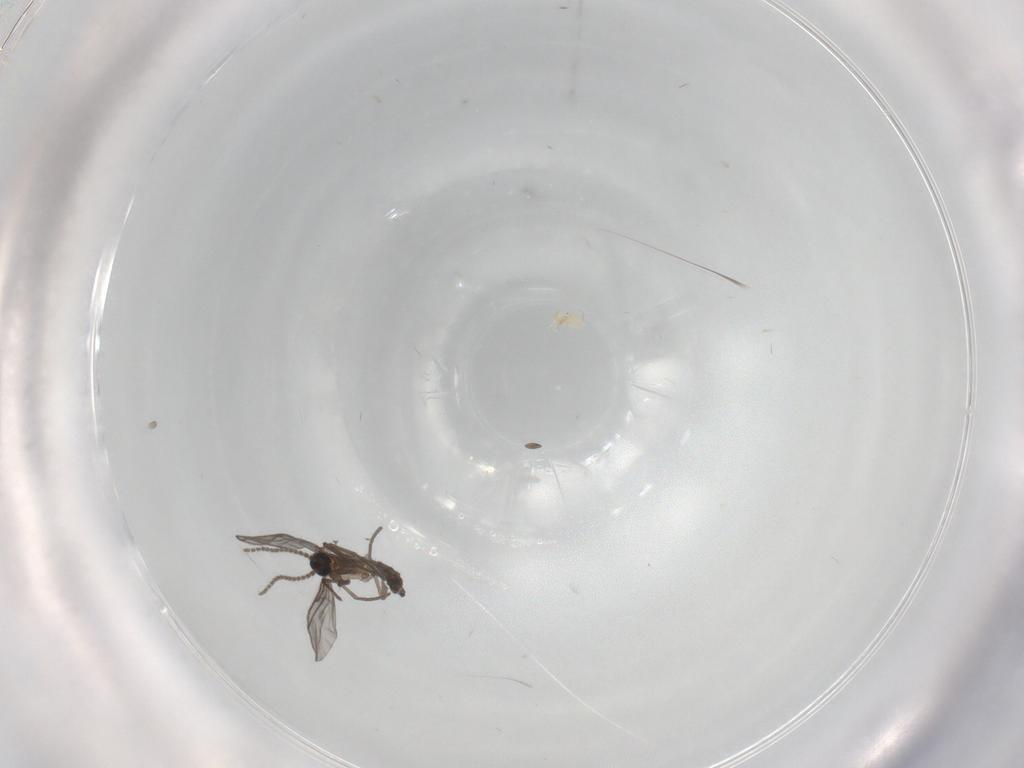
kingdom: Animalia
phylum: Arthropoda
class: Insecta
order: Diptera
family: Sciaridae
